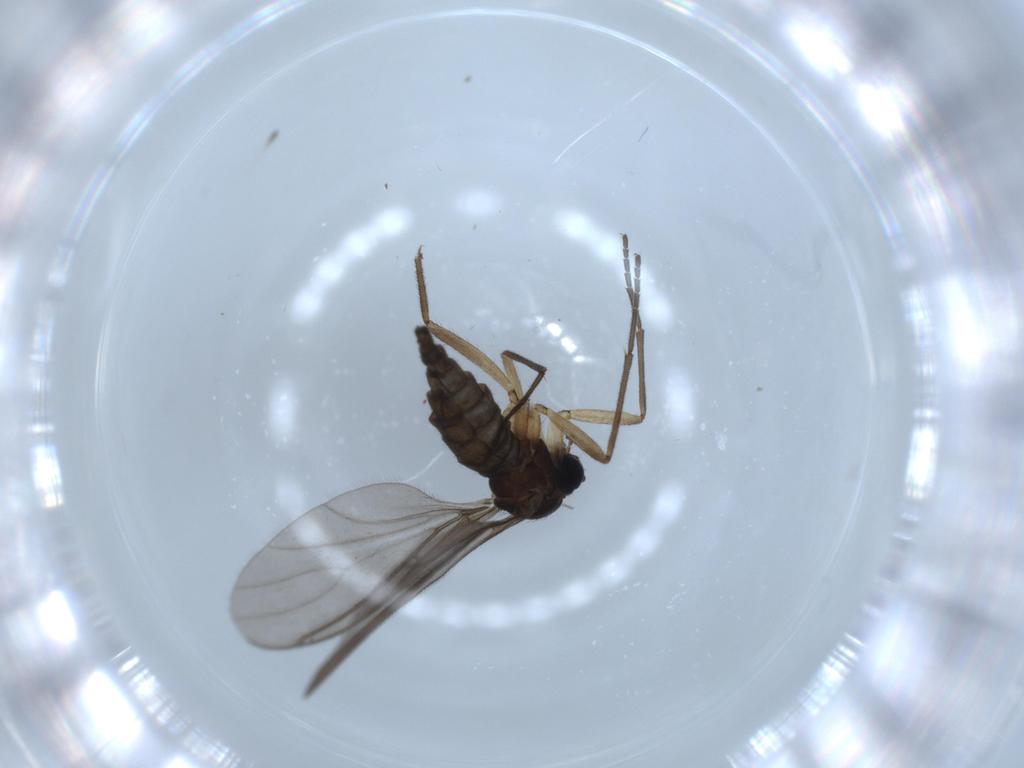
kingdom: Animalia
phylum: Arthropoda
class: Insecta
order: Diptera
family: Sciaridae
